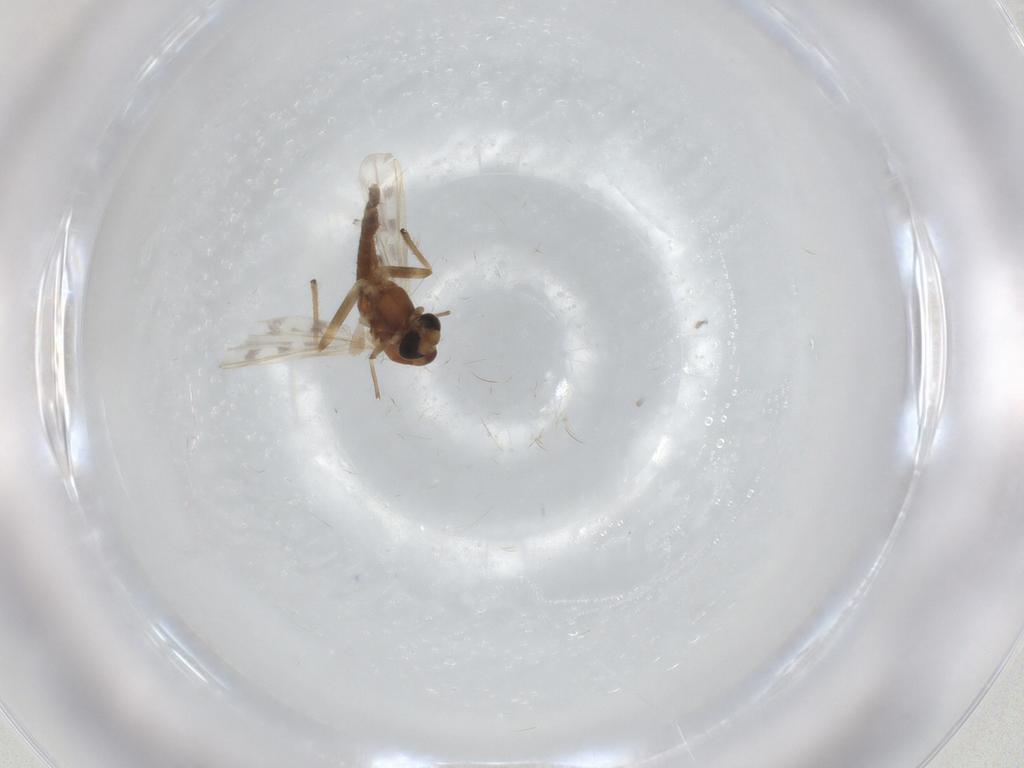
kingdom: Animalia
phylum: Arthropoda
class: Insecta
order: Diptera
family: Chironomidae
